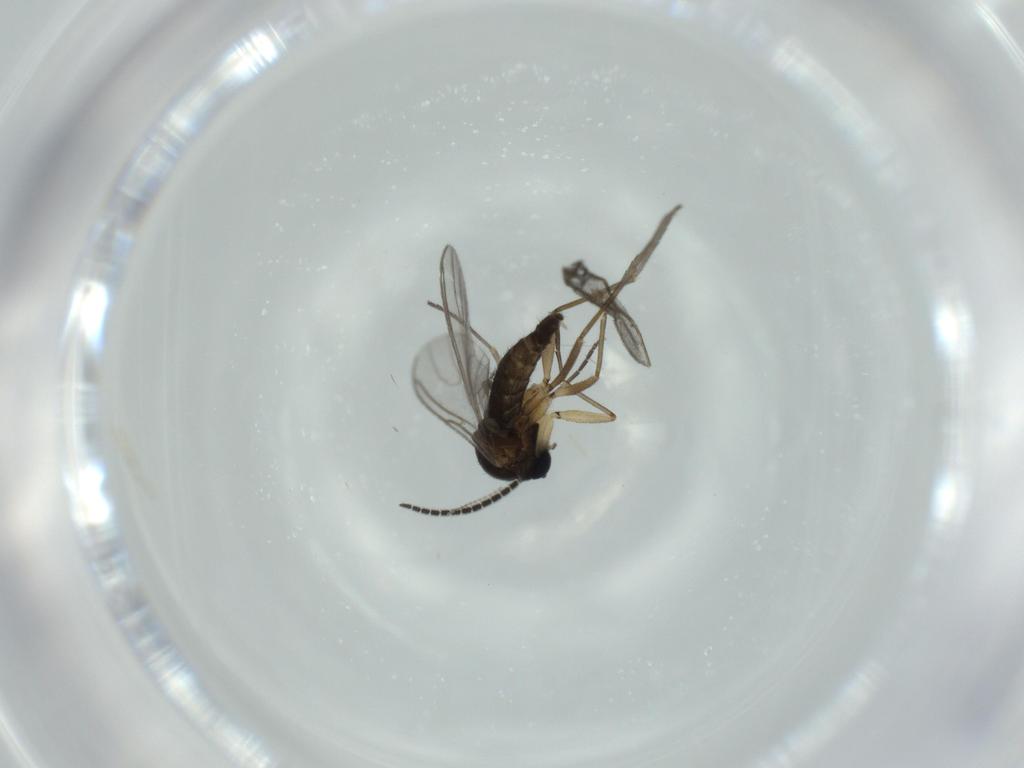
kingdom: Animalia
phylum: Arthropoda
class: Insecta
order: Diptera
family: Sciaridae
